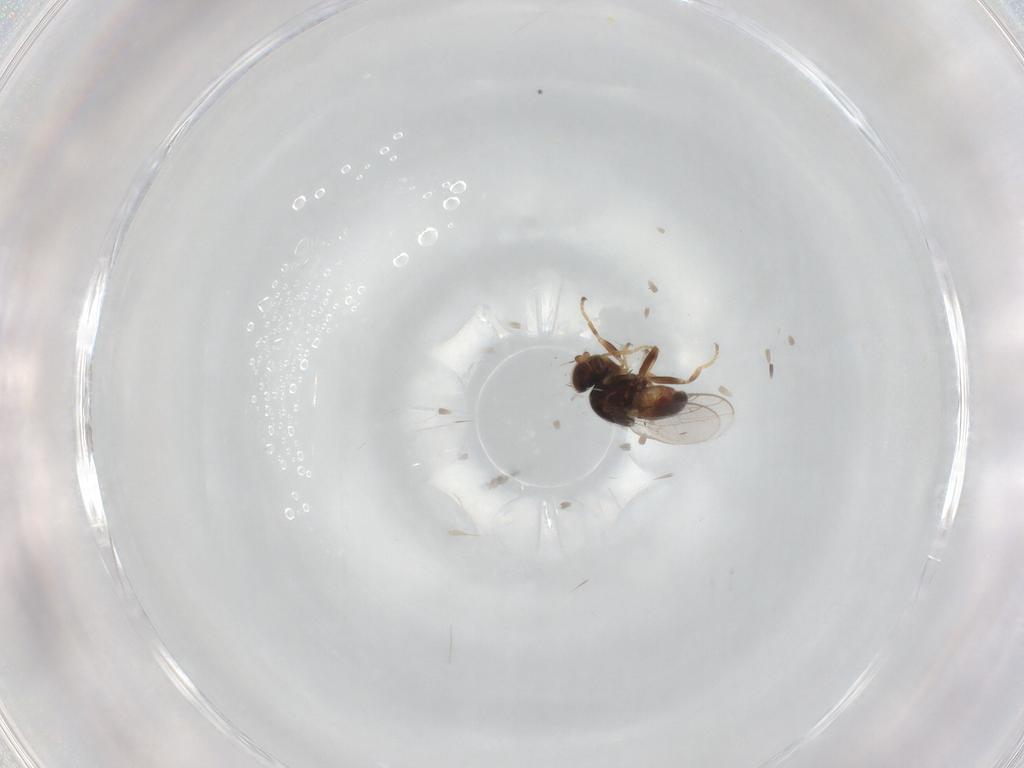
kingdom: Animalia
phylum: Arthropoda
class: Insecta
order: Diptera
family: Chloropidae
